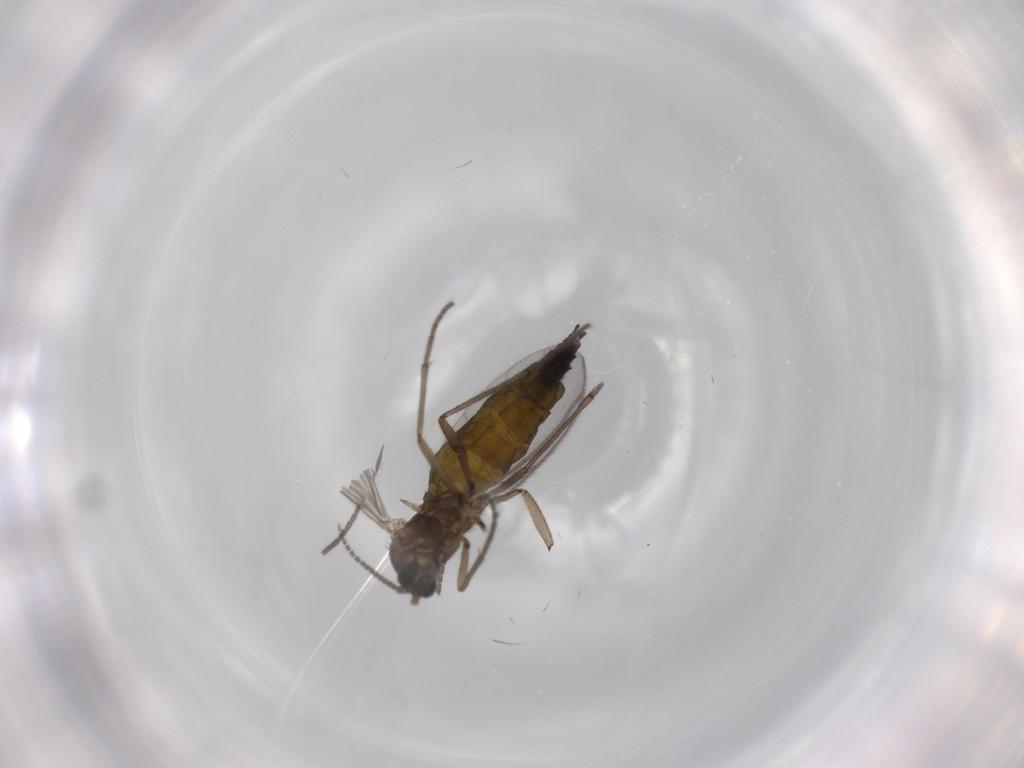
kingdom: Animalia
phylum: Arthropoda
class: Insecta
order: Diptera
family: Sciaridae
